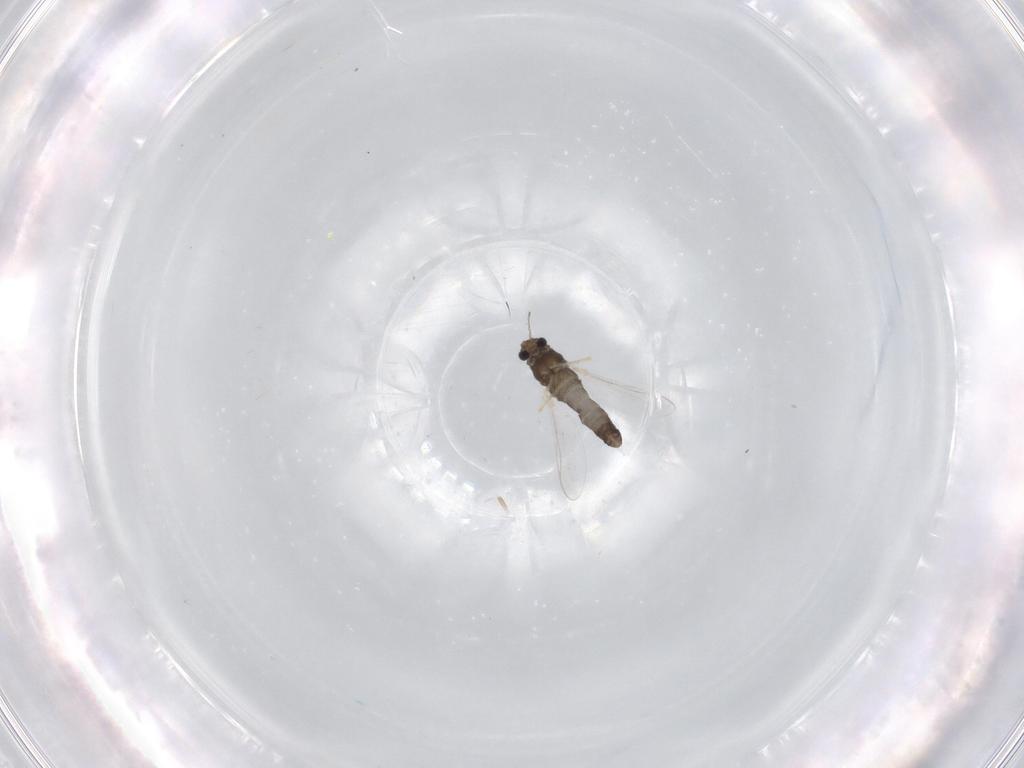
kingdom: Animalia
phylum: Arthropoda
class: Insecta
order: Diptera
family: Chironomidae
